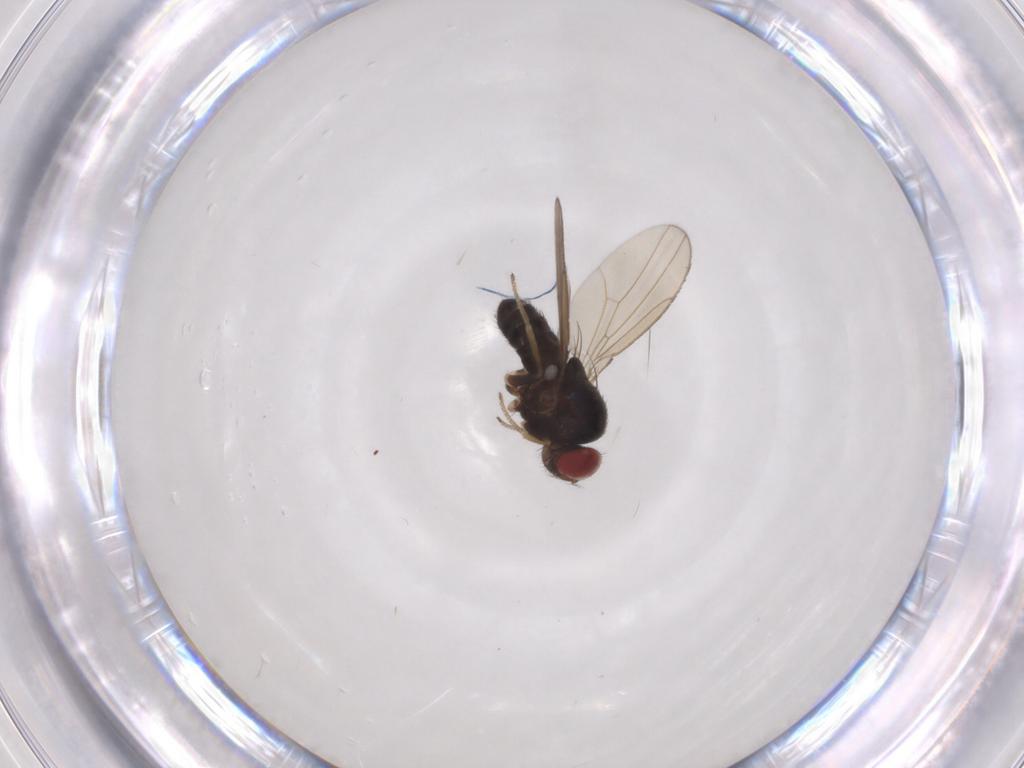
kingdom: Animalia
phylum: Arthropoda
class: Insecta
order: Diptera
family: Drosophilidae
